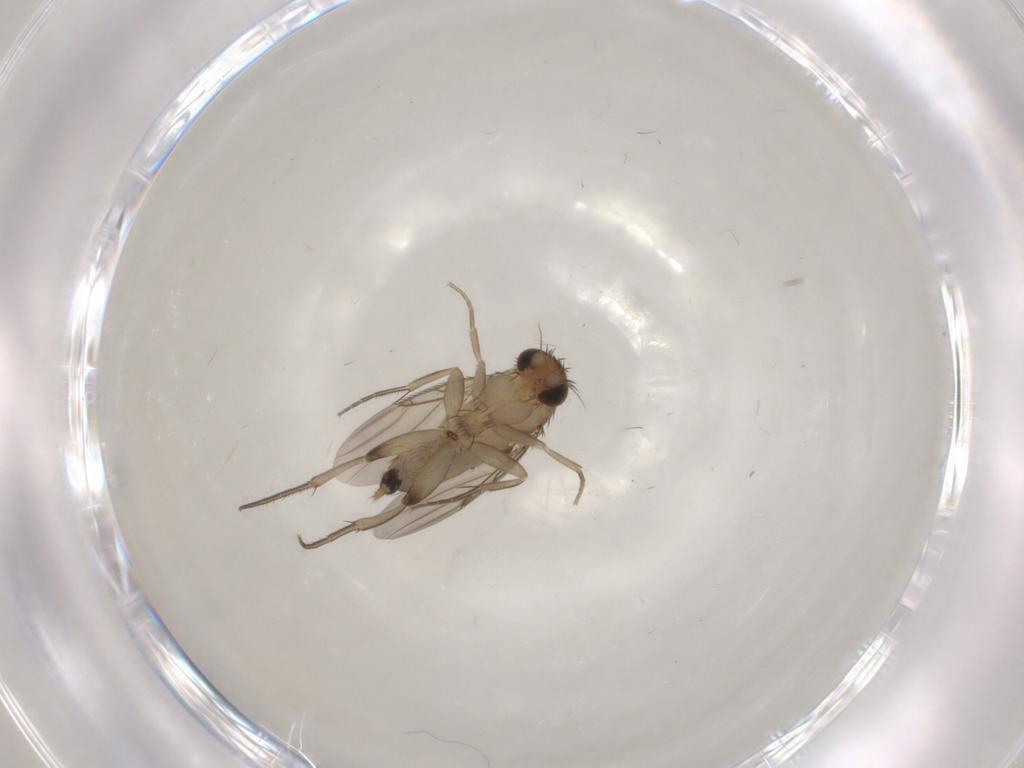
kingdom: Animalia
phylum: Arthropoda
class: Insecta
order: Diptera
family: Phoridae
